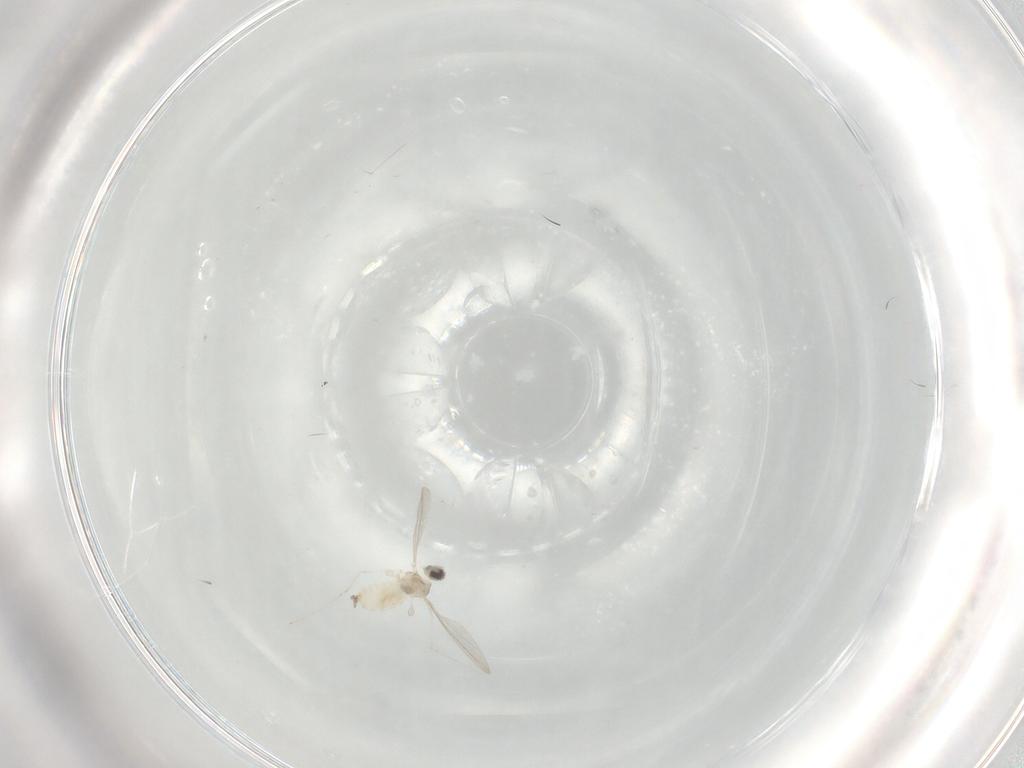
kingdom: Animalia
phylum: Arthropoda
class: Insecta
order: Diptera
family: Cecidomyiidae
